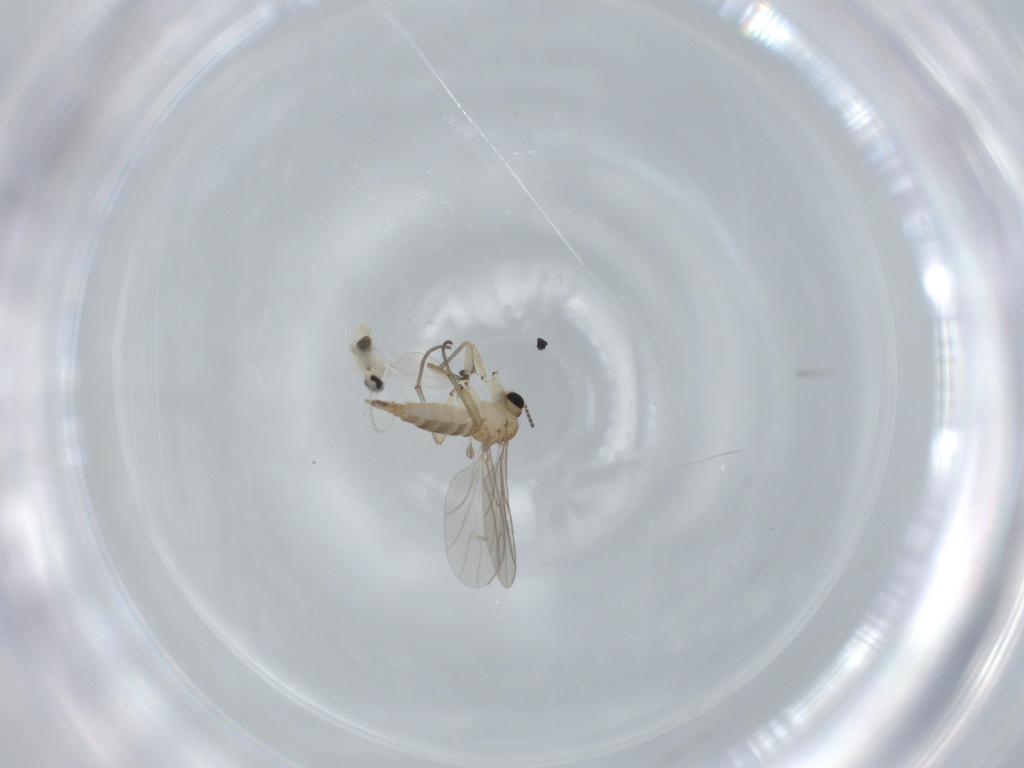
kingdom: Animalia
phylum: Arthropoda
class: Insecta
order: Diptera
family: Sciaridae
